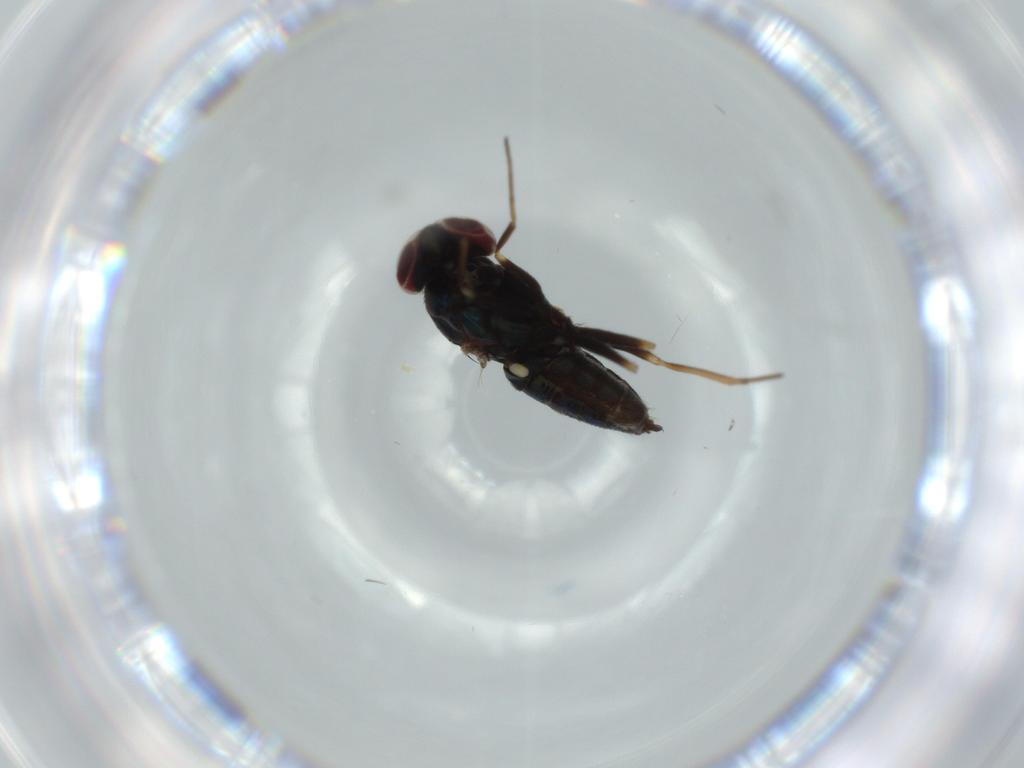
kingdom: Animalia
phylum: Arthropoda
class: Insecta
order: Diptera
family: Dolichopodidae
